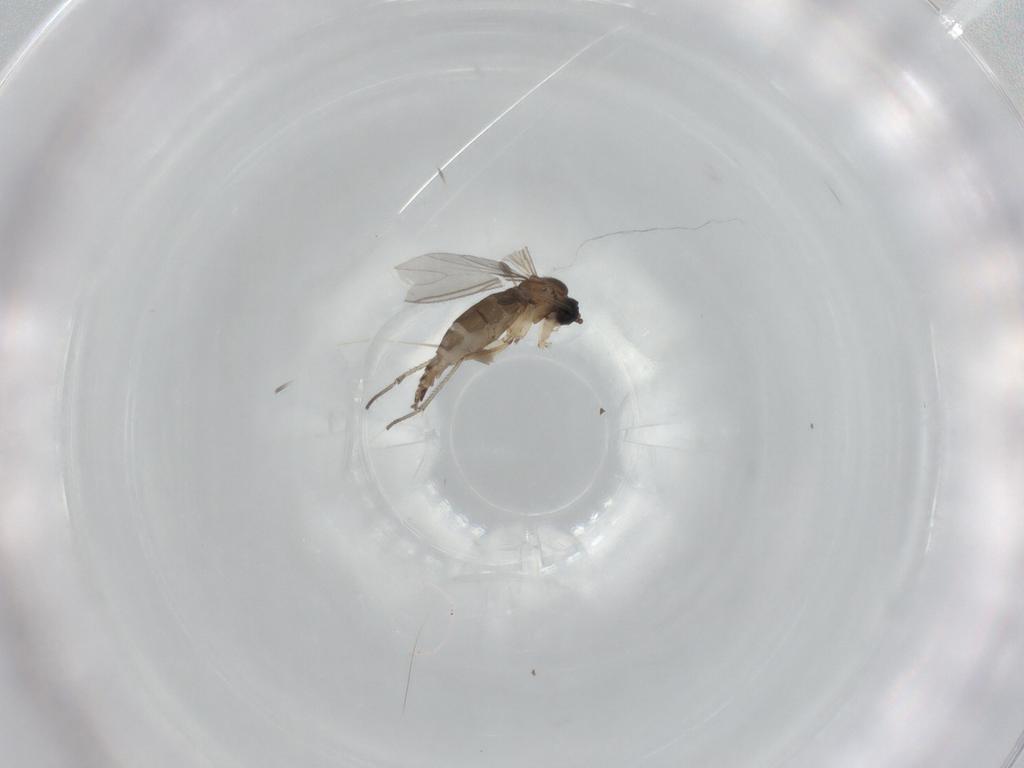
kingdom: Animalia
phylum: Arthropoda
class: Insecta
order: Diptera
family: Sciaridae
